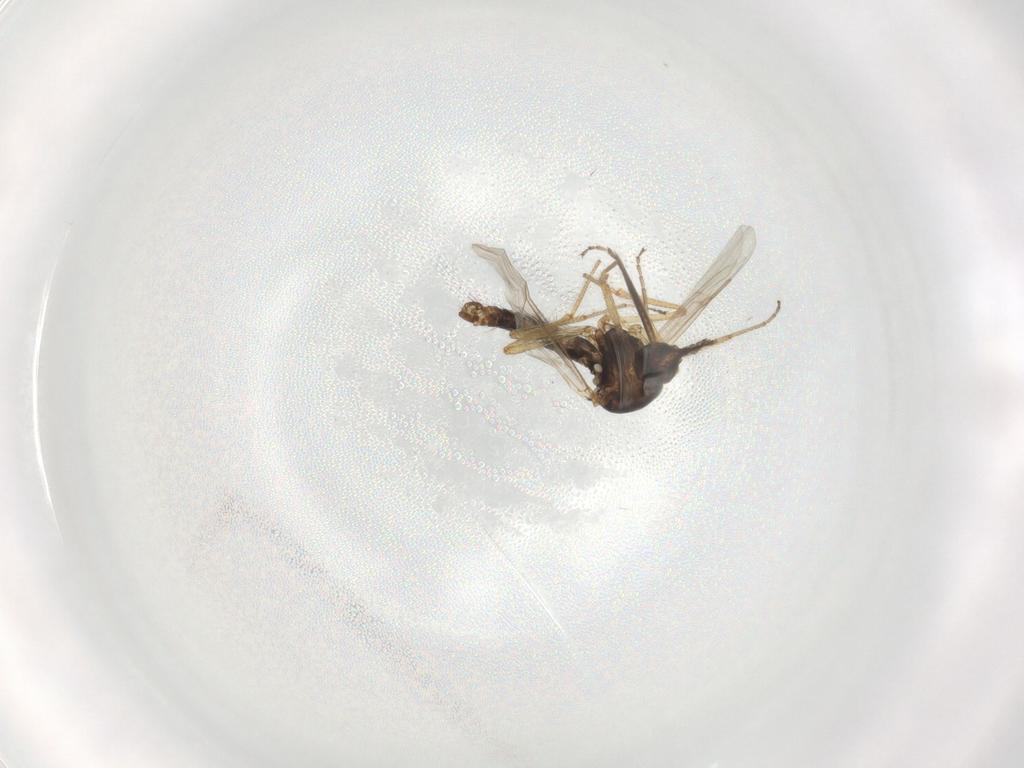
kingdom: Animalia
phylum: Arthropoda
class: Insecta
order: Diptera
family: Ceratopogonidae
